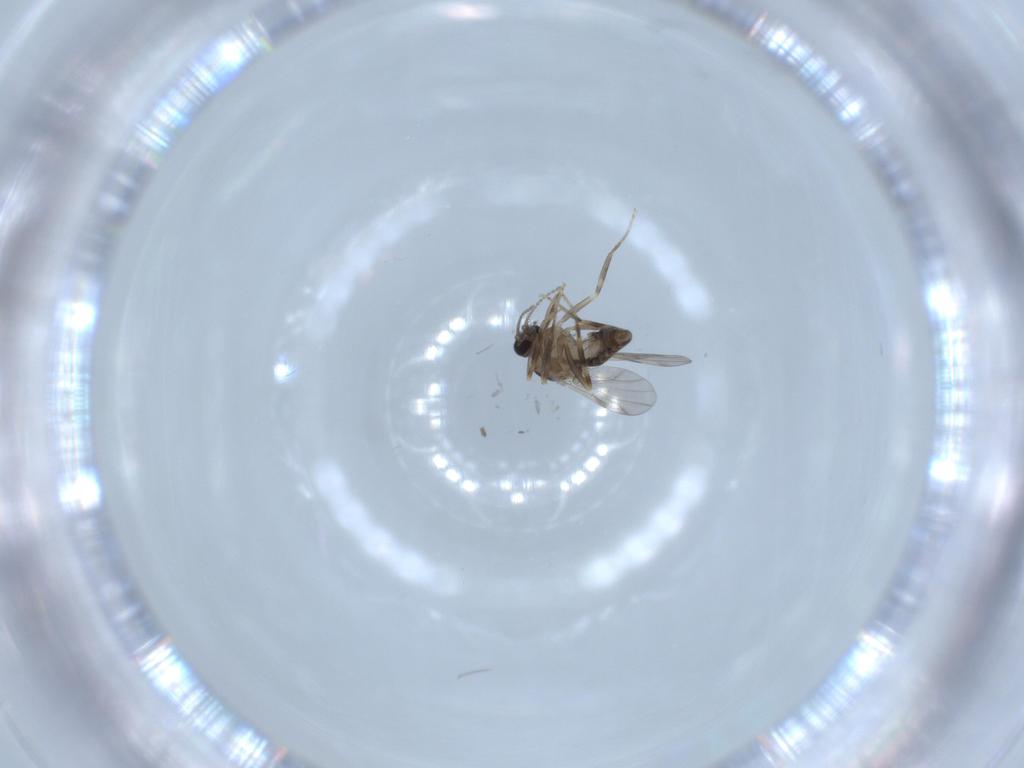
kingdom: Animalia
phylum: Arthropoda
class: Insecta
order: Diptera
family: Ceratopogonidae
